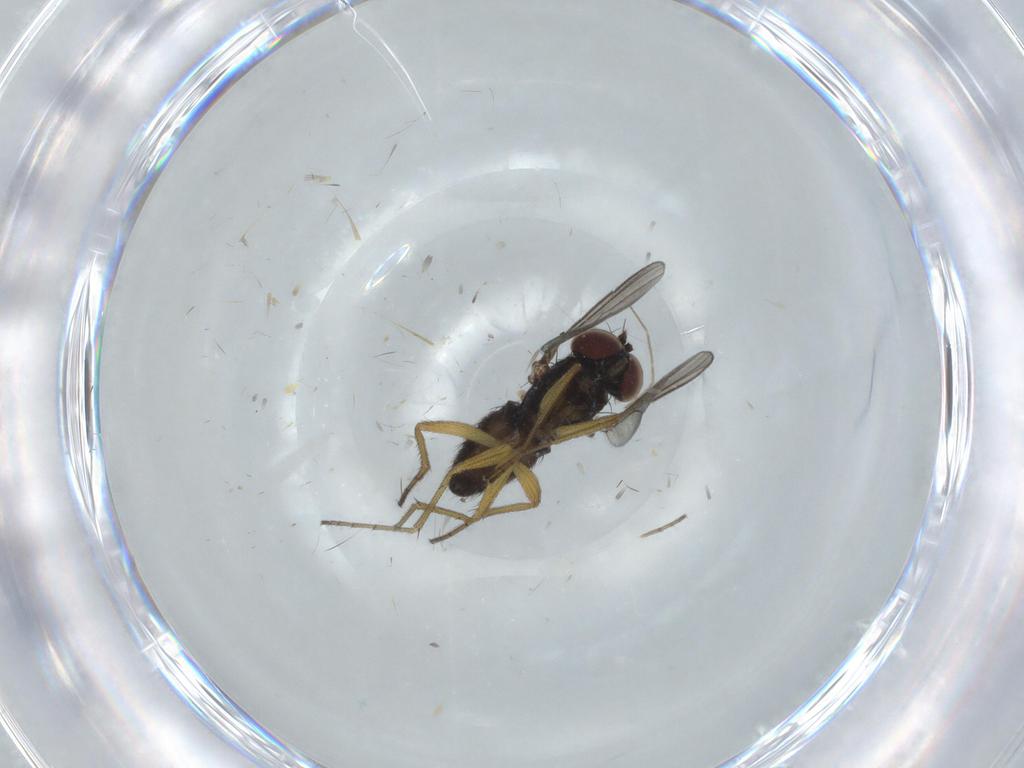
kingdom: Animalia
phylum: Arthropoda
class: Insecta
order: Diptera
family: Dolichopodidae
